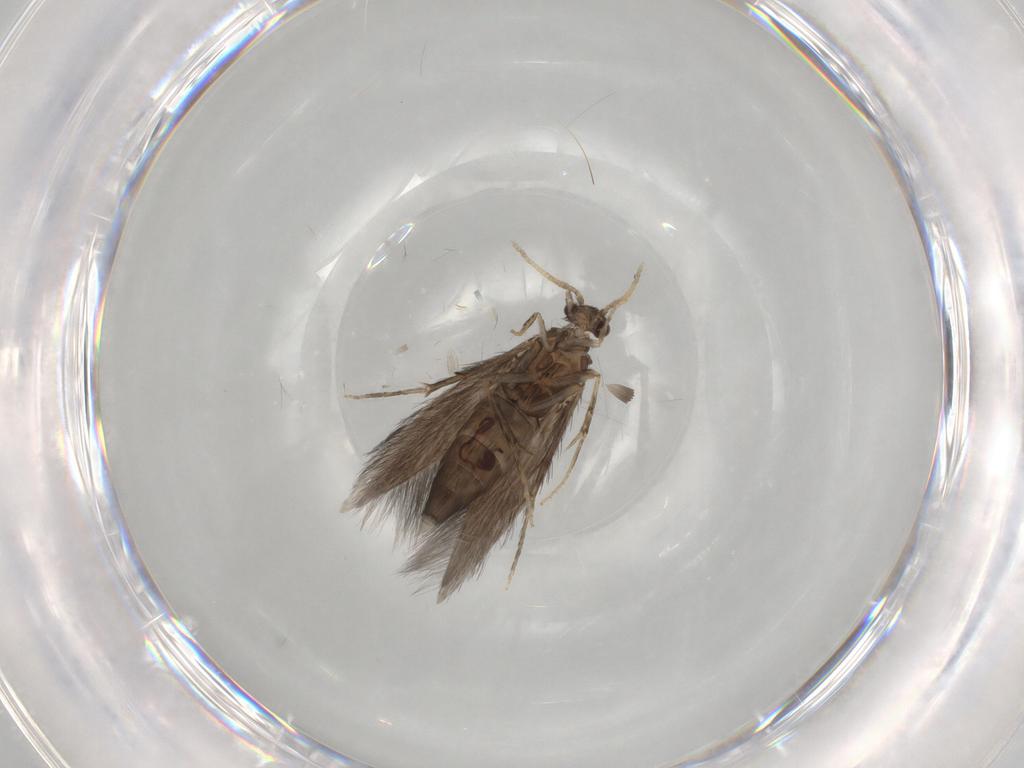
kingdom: Animalia
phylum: Arthropoda
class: Insecta
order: Trichoptera
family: Hydroptilidae
